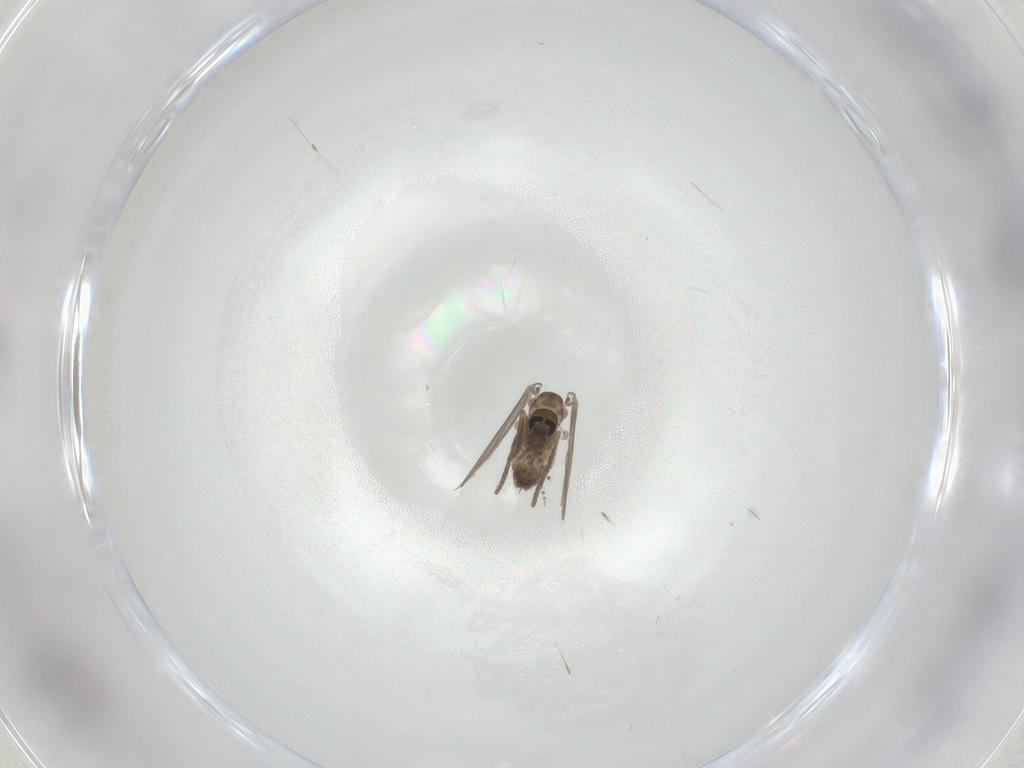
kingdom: Animalia
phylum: Arthropoda
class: Insecta
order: Diptera
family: Psychodidae
